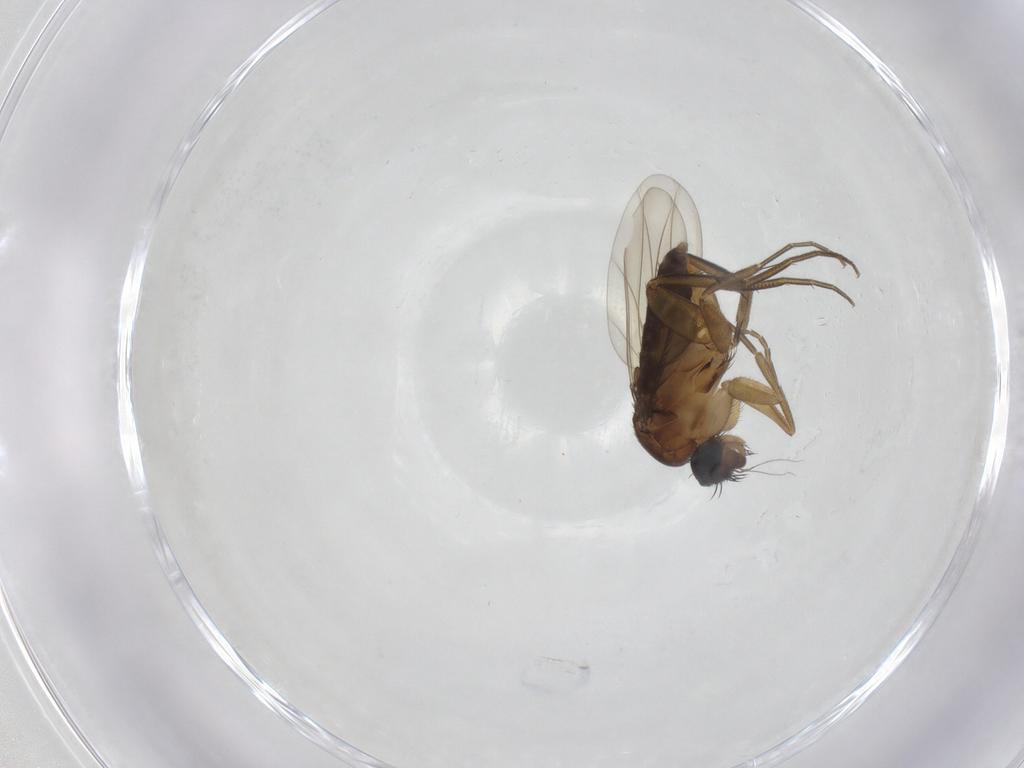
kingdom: Animalia
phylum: Arthropoda
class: Insecta
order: Diptera
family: Phoridae
